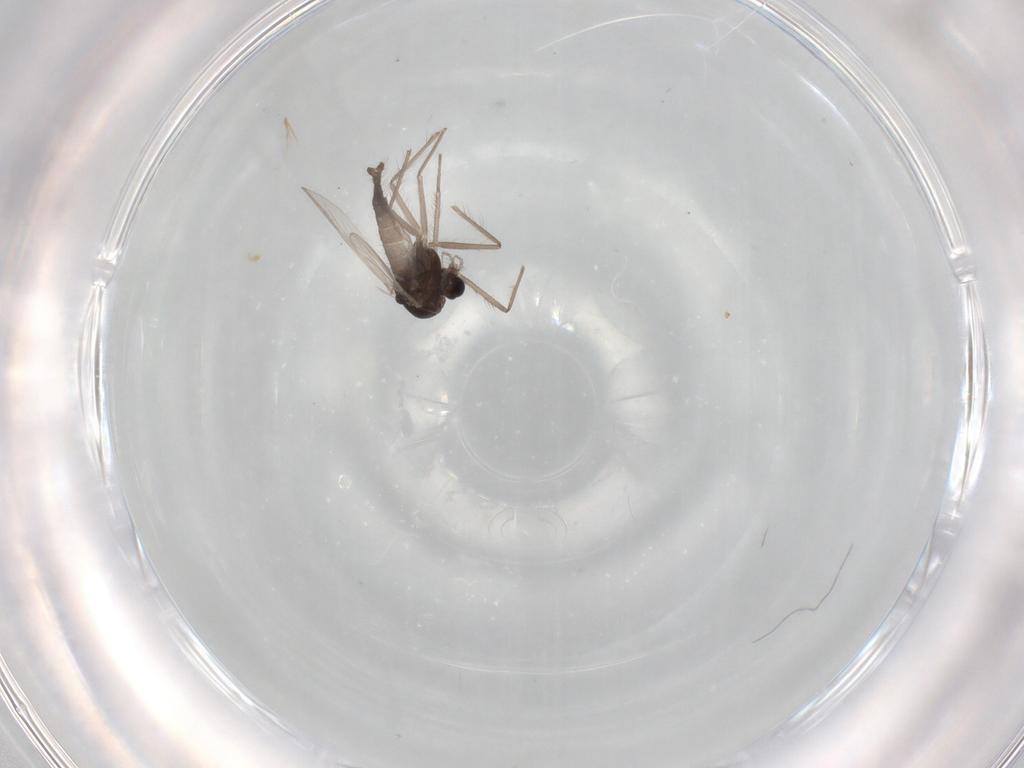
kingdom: Animalia
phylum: Arthropoda
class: Insecta
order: Diptera
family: Chironomidae
